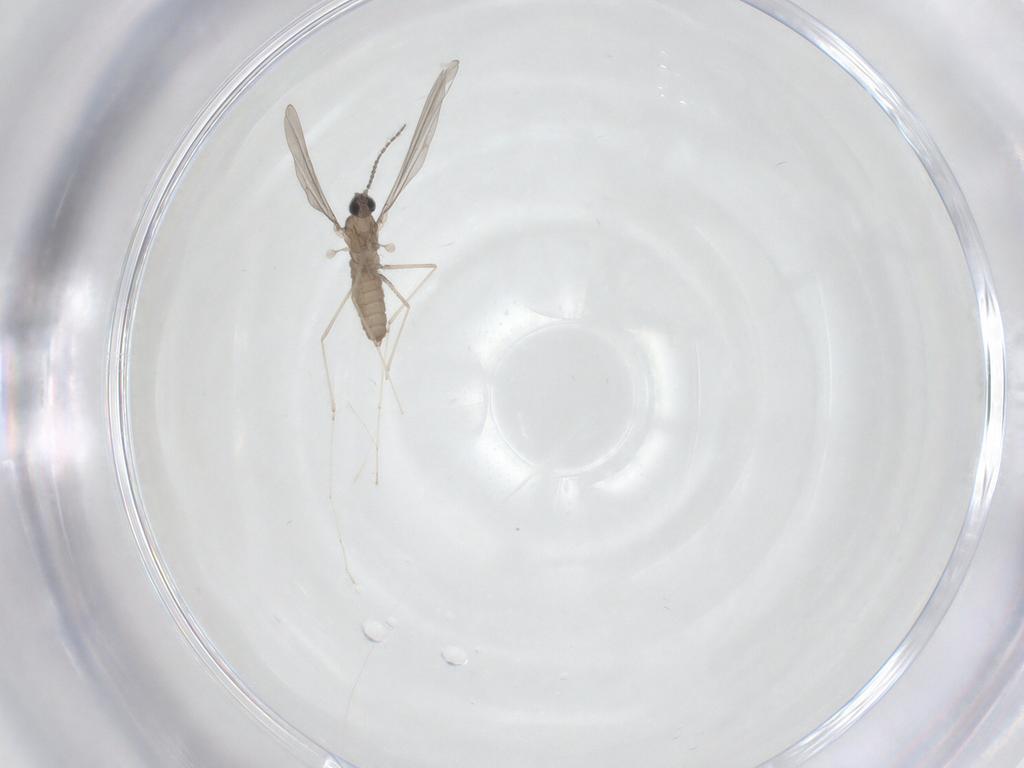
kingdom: Animalia
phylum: Arthropoda
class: Insecta
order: Diptera
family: Cecidomyiidae
